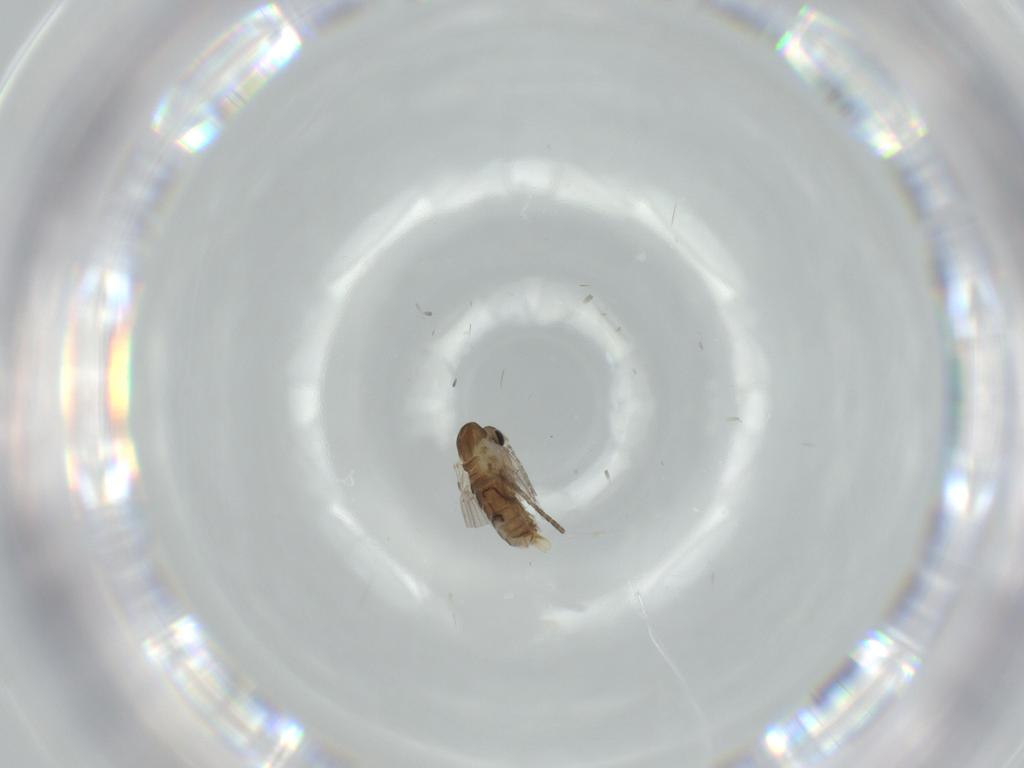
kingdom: Animalia
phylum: Arthropoda
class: Insecta
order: Diptera
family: Psychodidae
